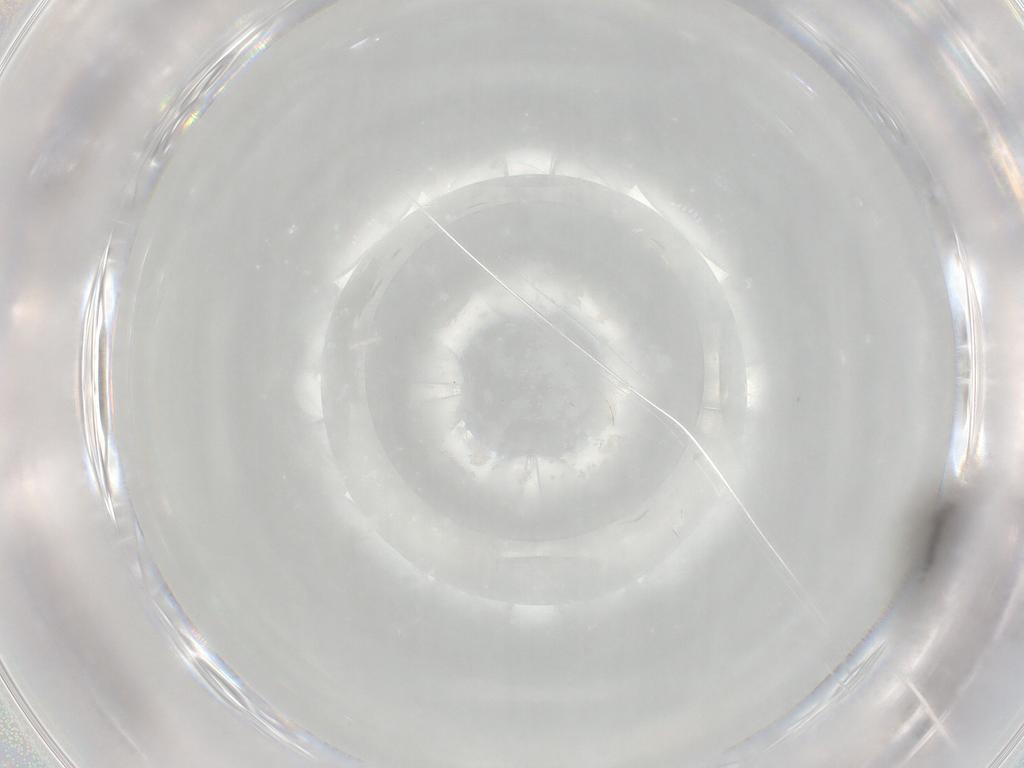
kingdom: Animalia
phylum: Arthropoda
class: Insecta
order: Diptera
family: Sciaridae
